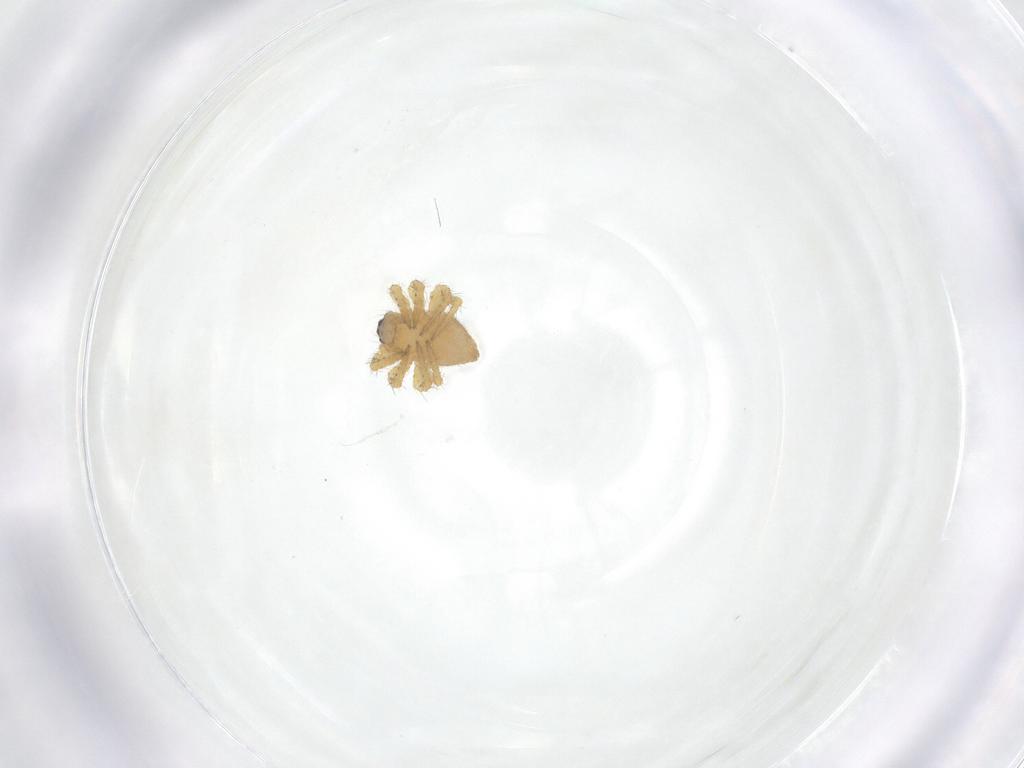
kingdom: Animalia
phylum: Arthropoda
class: Arachnida
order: Araneae
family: Theridiidae
